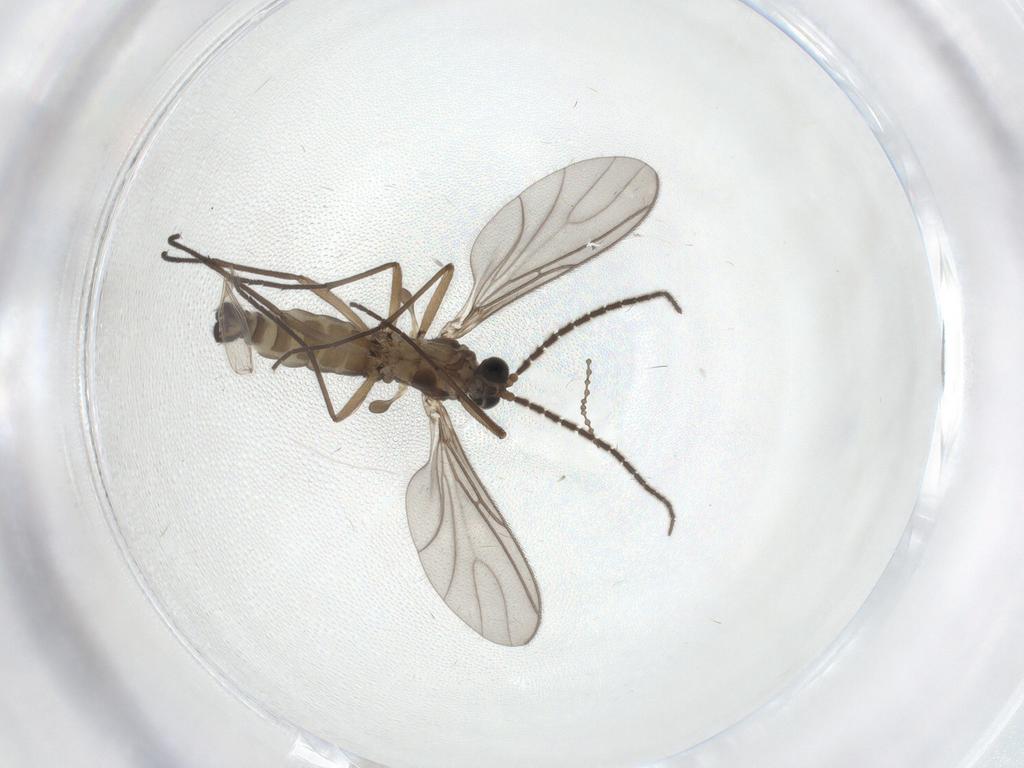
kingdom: Animalia
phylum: Arthropoda
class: Insecta
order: Diptera
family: Sciaridae
